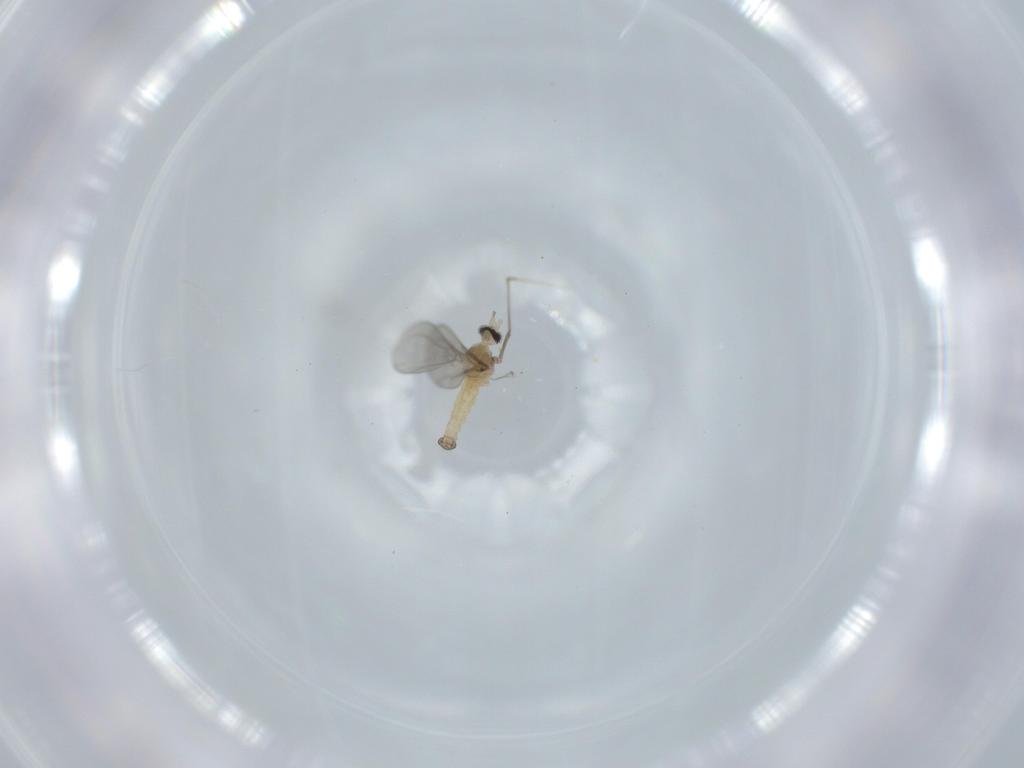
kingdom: Animalia
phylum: Arthropoda
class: Insecta
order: Diptera
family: Cecidomyiidae
